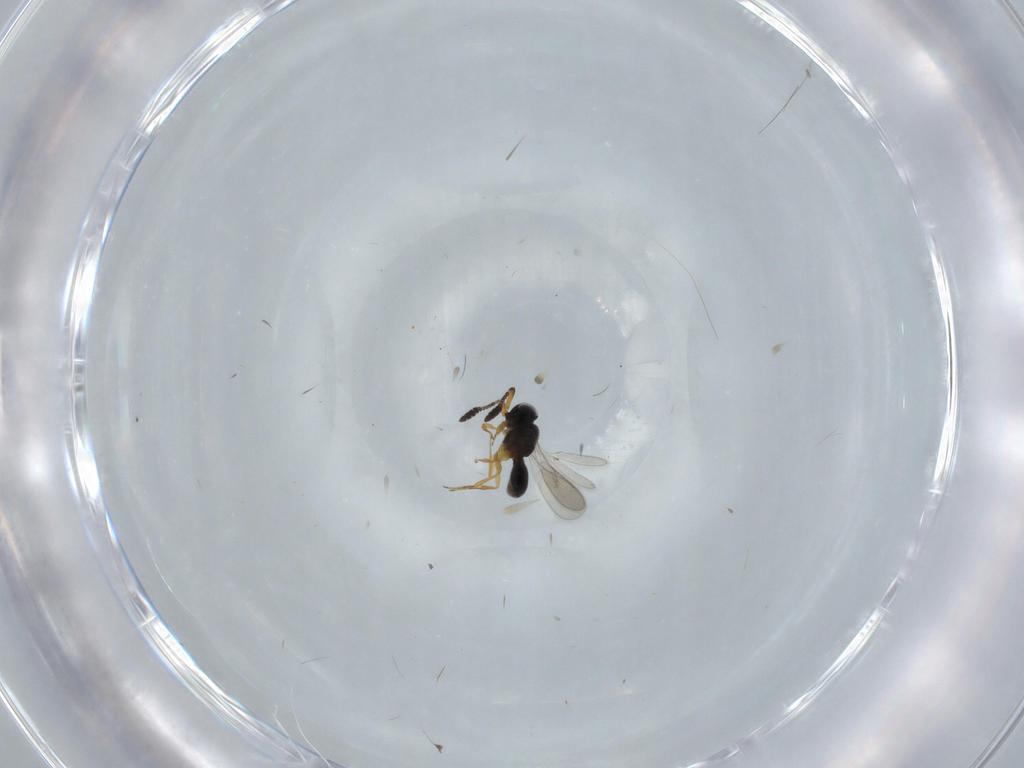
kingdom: Animalia
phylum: Arthropoda
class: Insecta
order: Hymenoptera
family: Scelionidae
